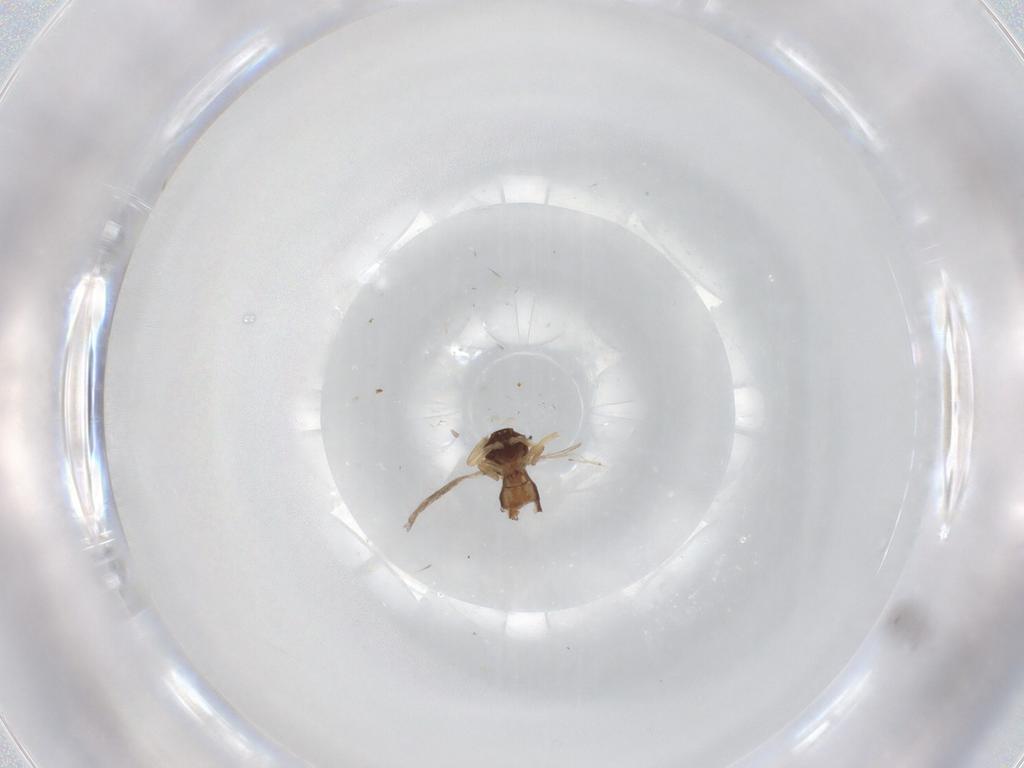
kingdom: Animalia
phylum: Arthropoda
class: Insecta
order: Diptera
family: Ceratopogonidae
